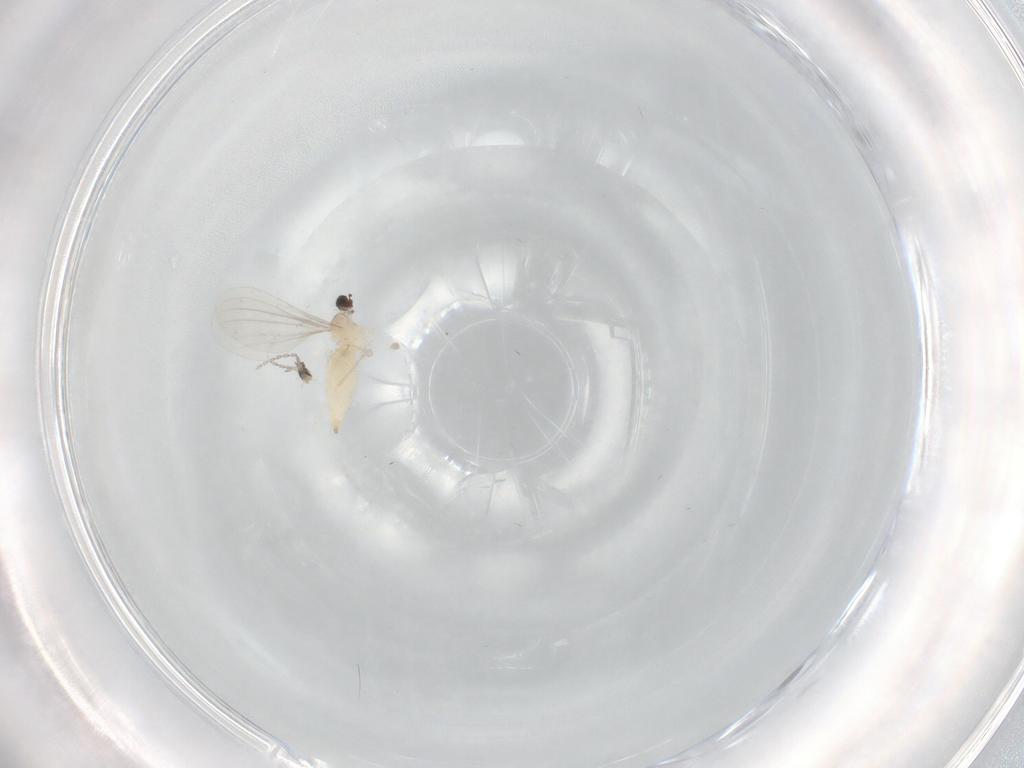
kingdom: Animalia
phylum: Arthropoda
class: Insecta
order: Diptera
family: Cecidomyiidae
